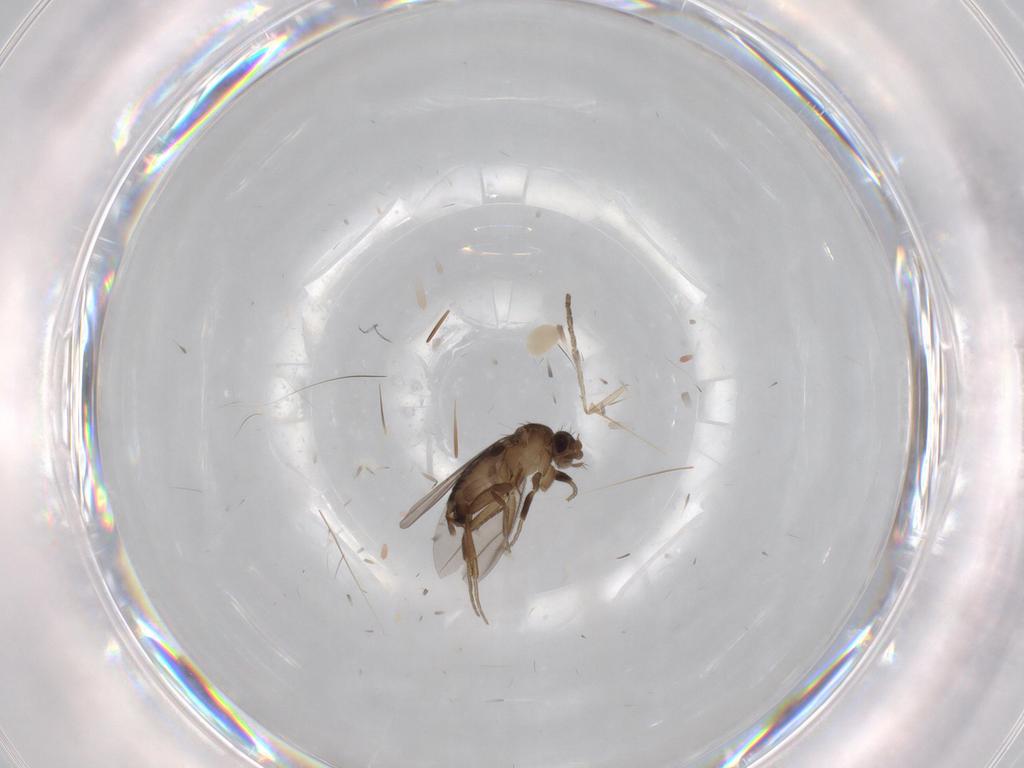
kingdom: Animalia
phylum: Arthropoda
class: Insecta
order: Diptera
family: Phoridae
